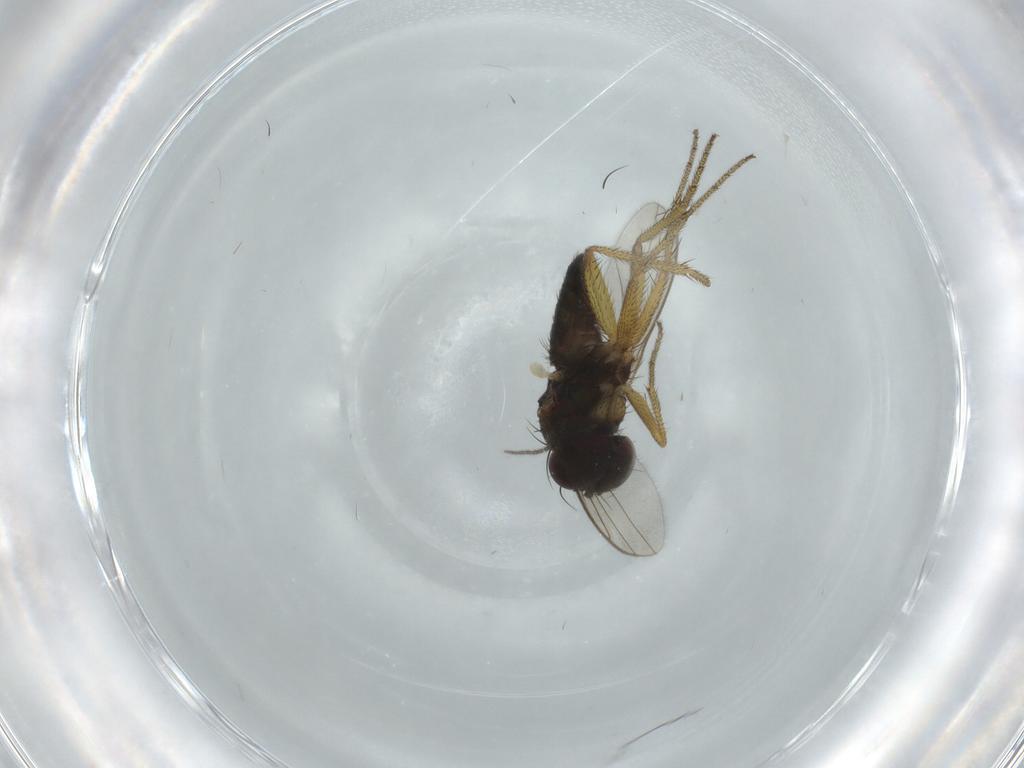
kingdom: Animalia
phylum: Arthropoda
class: Insecta
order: Diptera
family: Sciaridae
